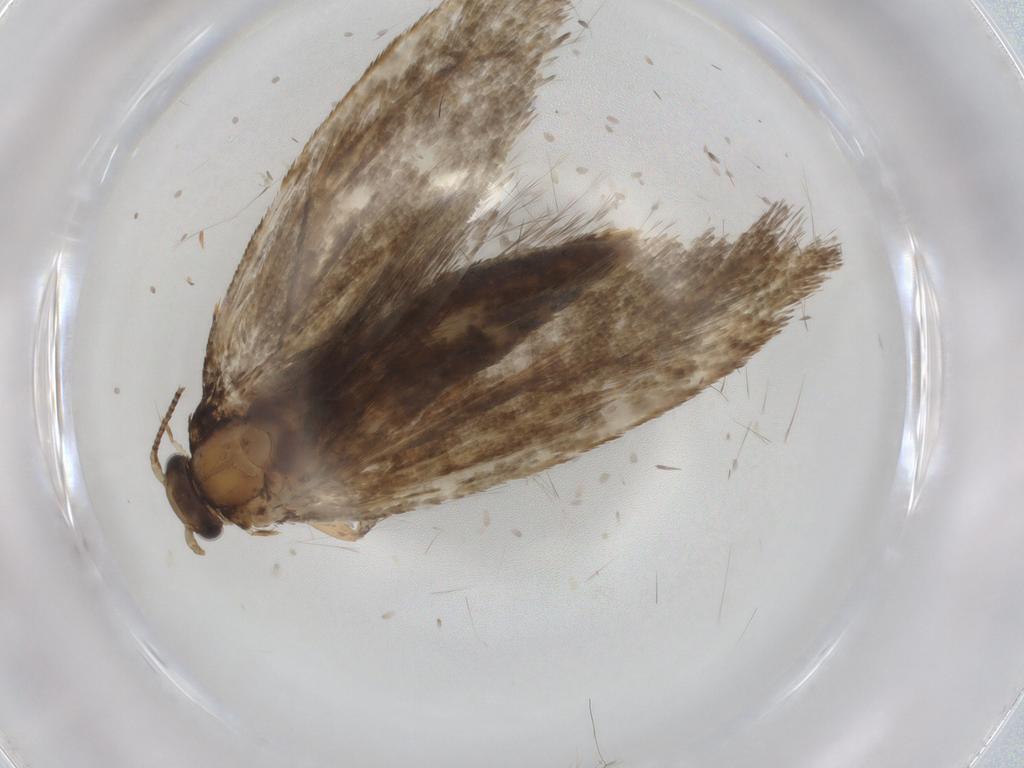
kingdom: Animalia
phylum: Arthropoda
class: Insecta
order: Lepidoptera
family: Crambidae
